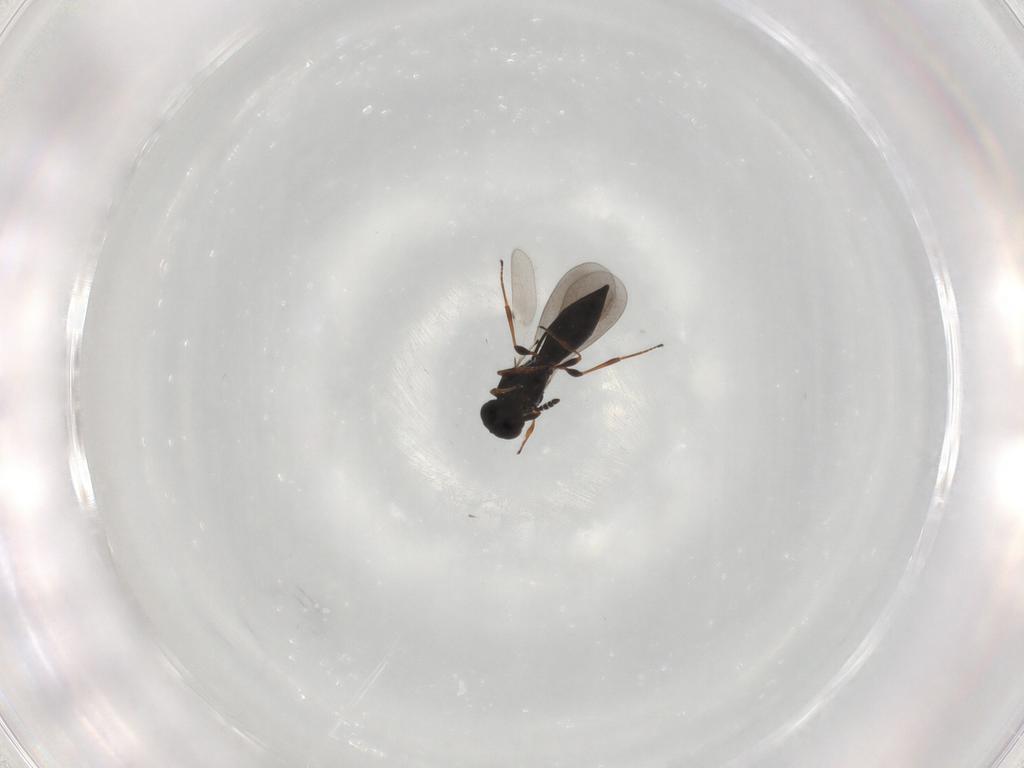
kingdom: Animalia
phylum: Arthropoda
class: Insecta
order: Hymenoptera
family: Platygastridae
